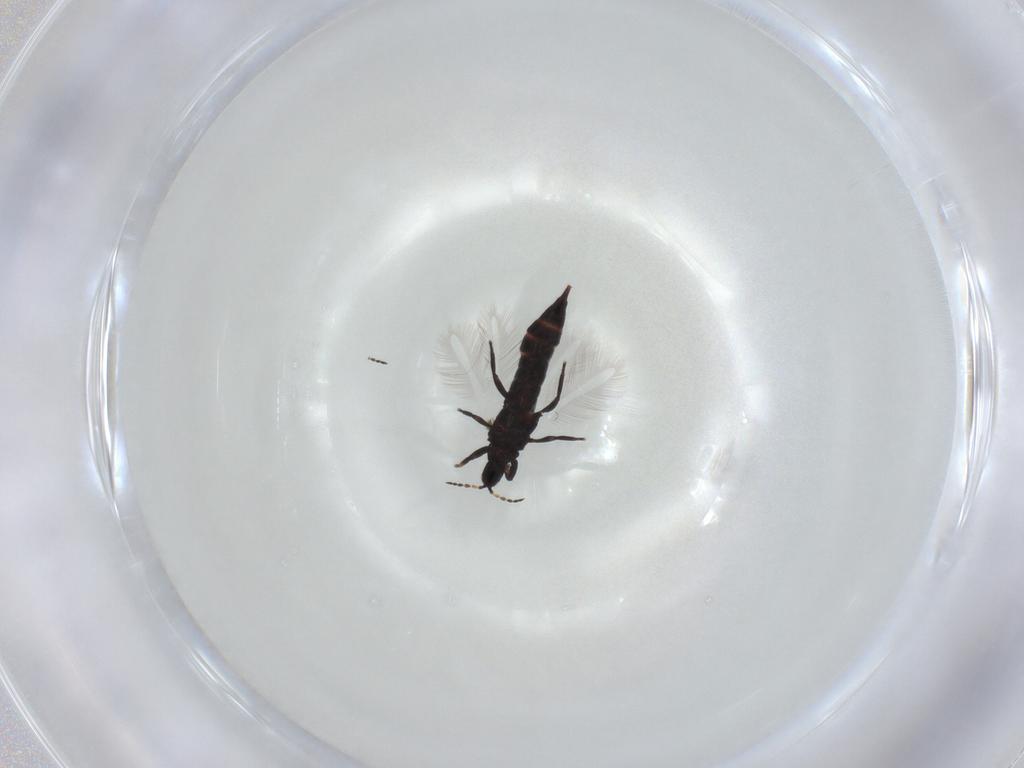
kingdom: Animalia
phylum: Arthropoda
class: Insecta
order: Thysanoptera
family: Phlaeothripidae
